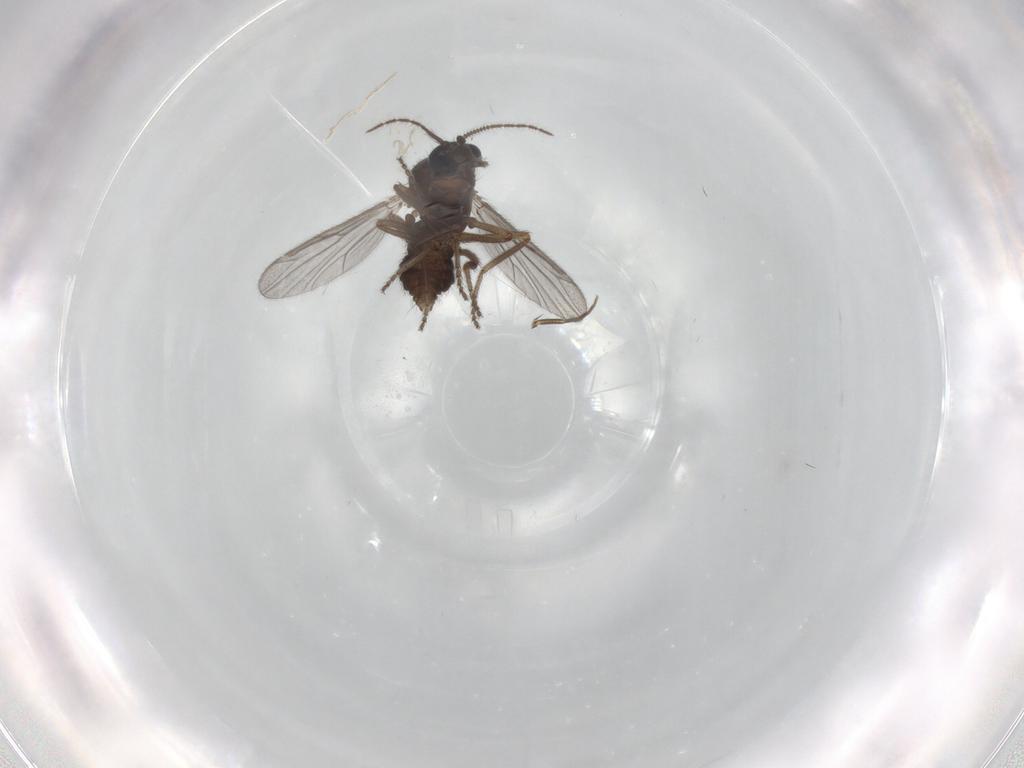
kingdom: Animalia
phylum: Arthropoda
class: Insecta
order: Diptera
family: Ceratopogonidae
